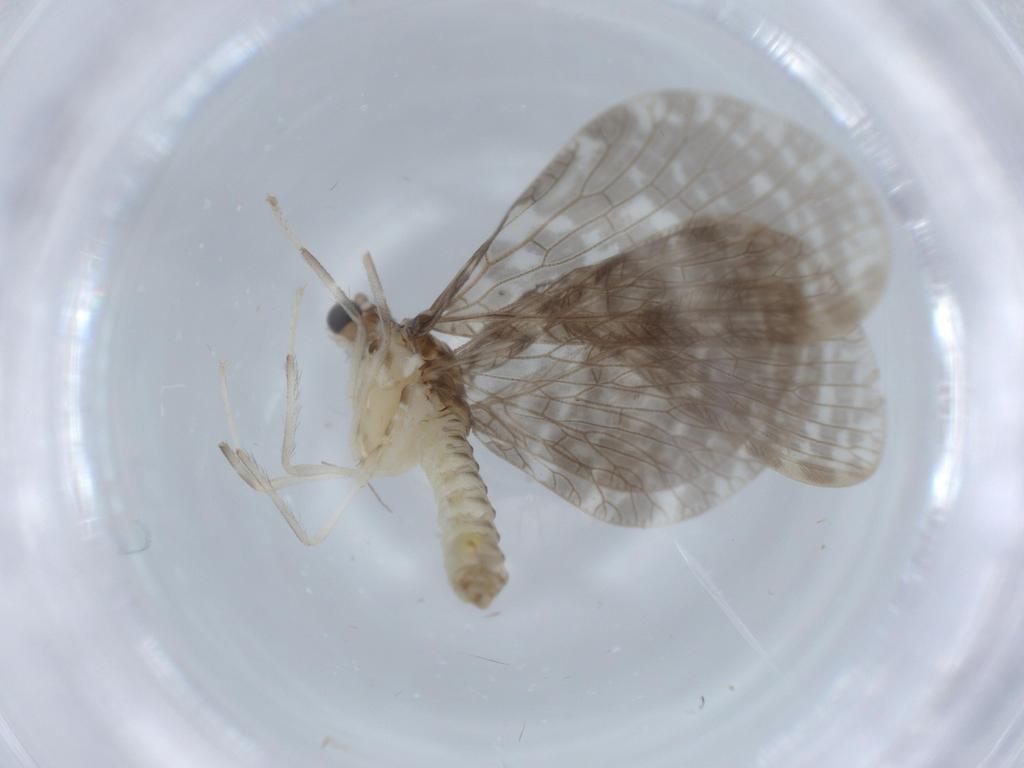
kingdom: Animalia
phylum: Arthropoda
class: Insecta
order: Neuroptera
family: Dilaridae
